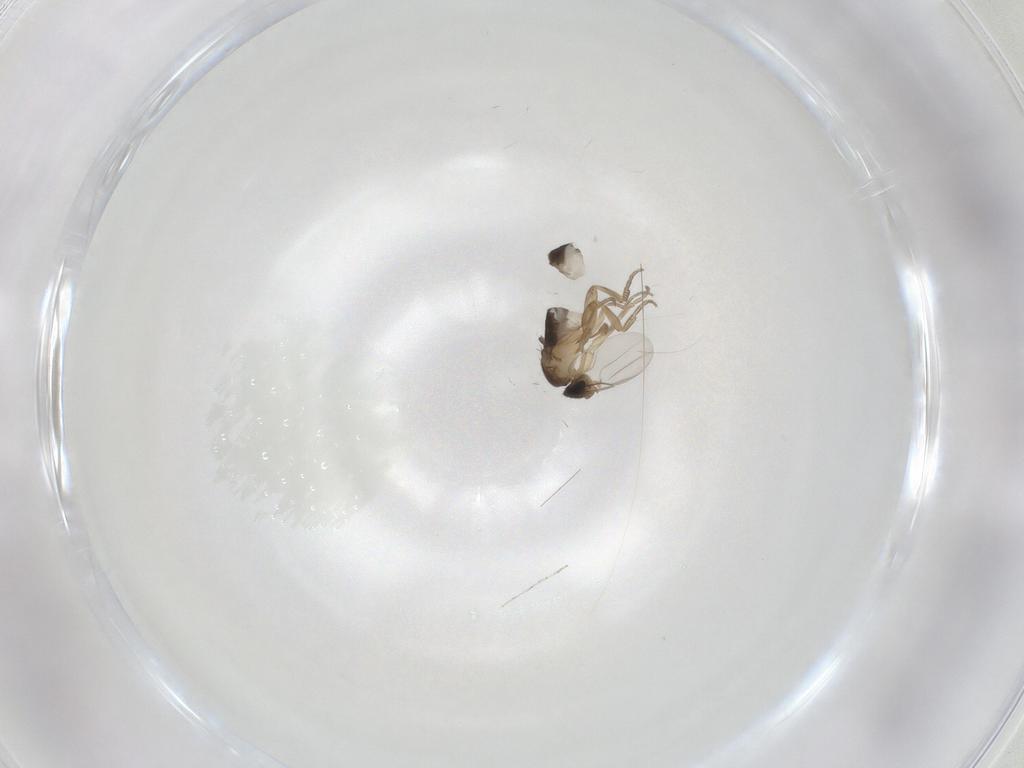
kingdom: Animalia
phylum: Arthropoda
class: Insecta
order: Diptera
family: Phoridae
